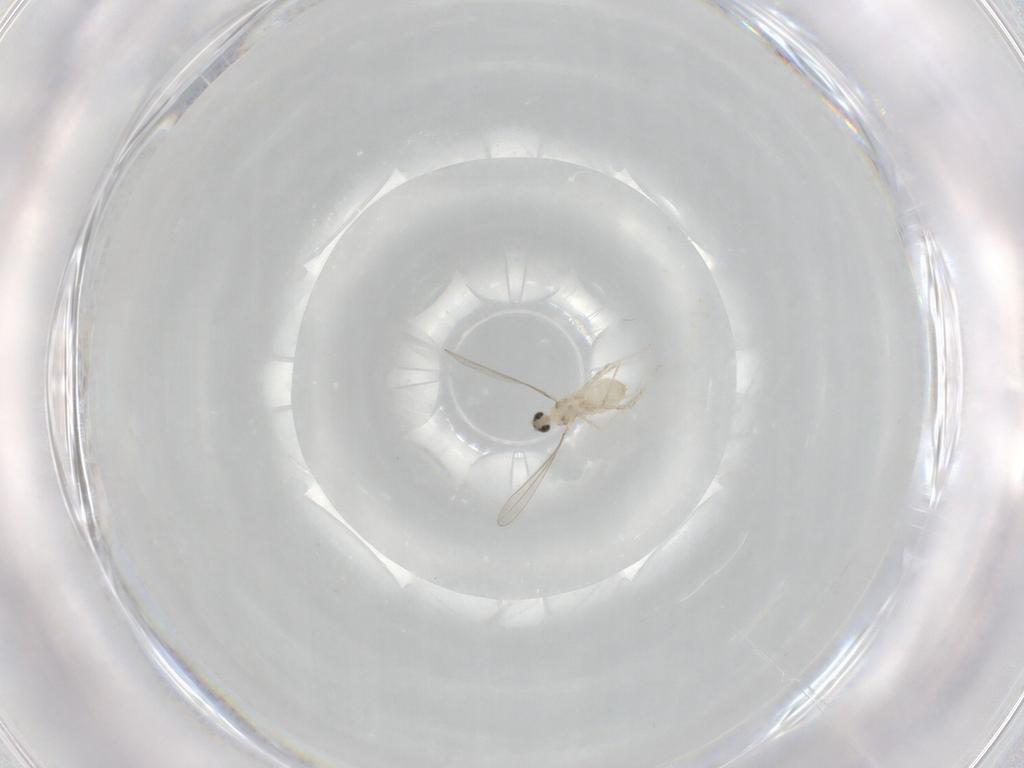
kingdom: Animalia
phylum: Arthropoda
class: Insecta
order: Diptera
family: Cecidomyiidae
